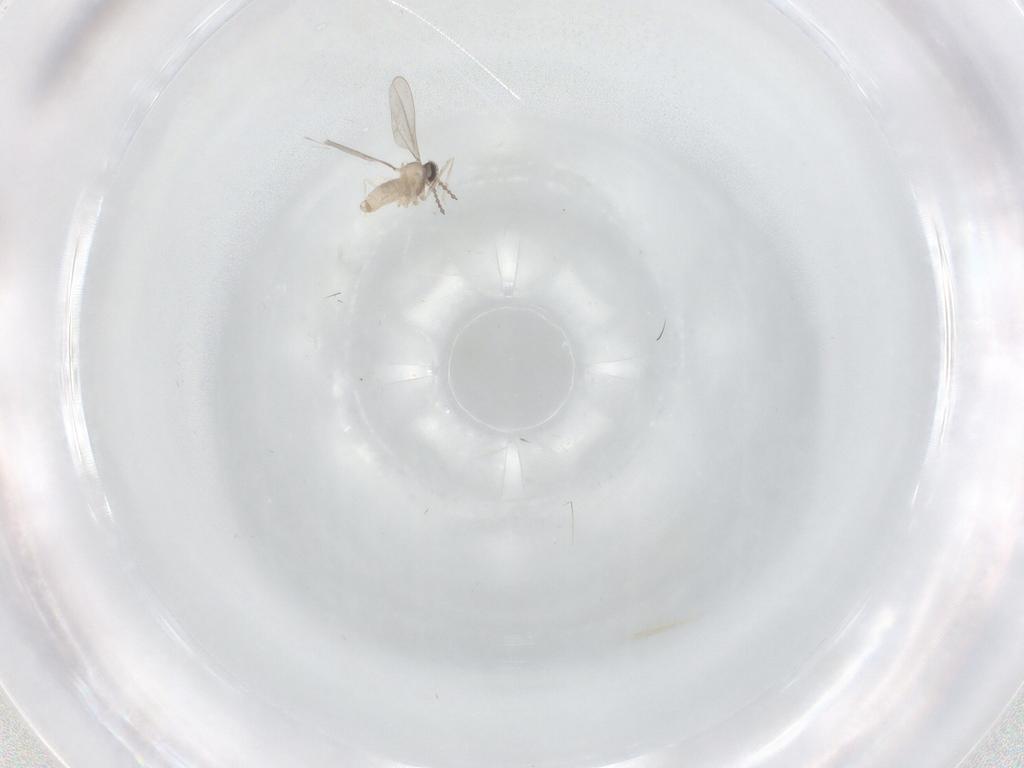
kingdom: Animalia
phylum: Arthropoda
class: Insecta
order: Diptera
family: Cecidomyiidae
